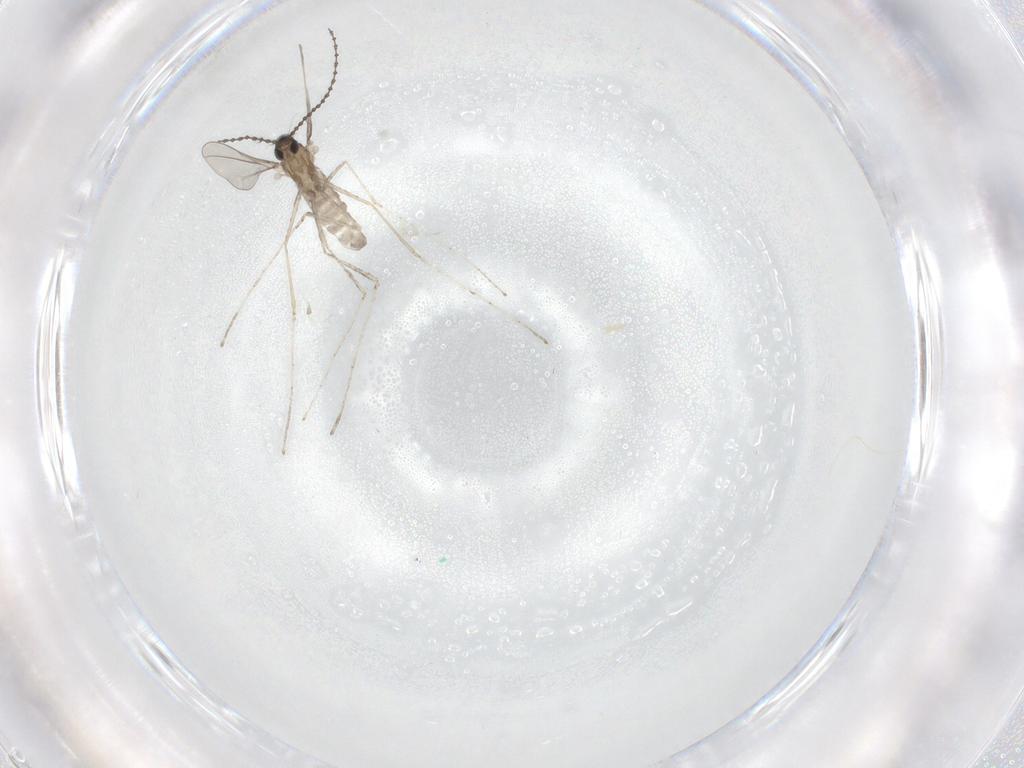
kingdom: Animalia
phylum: Arthropoda
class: Insecta
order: Diptera
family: Cecidomyiidae
